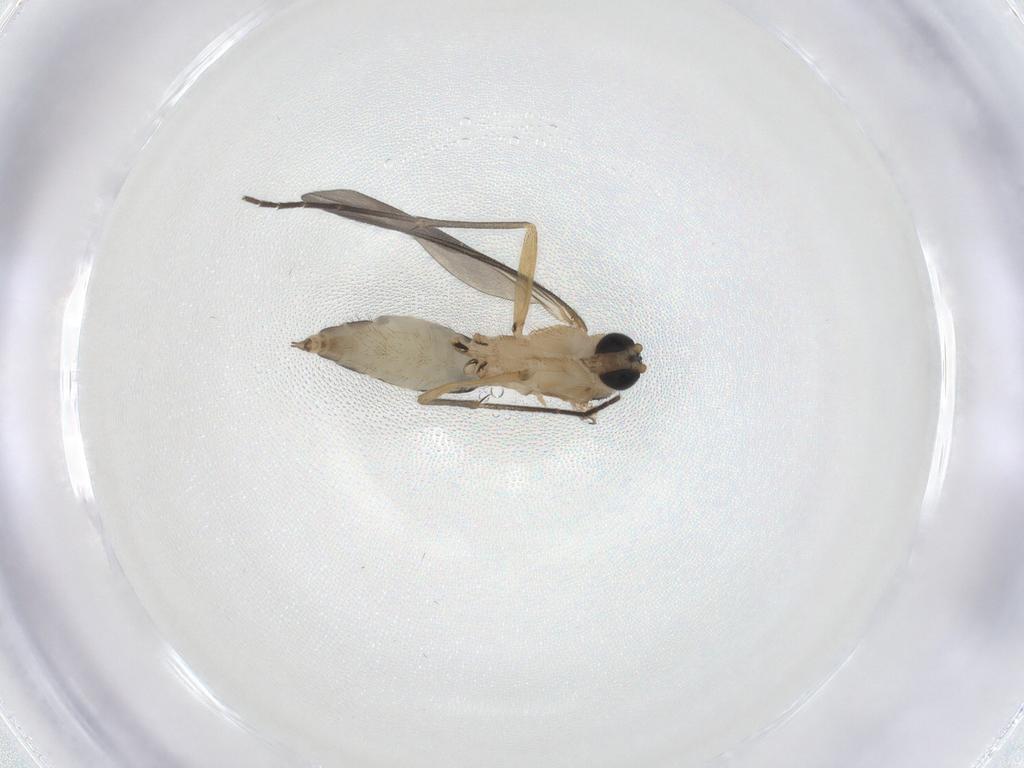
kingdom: Animalia
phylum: Arthropoda
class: Insecta
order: Diptera
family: Sciaridae
